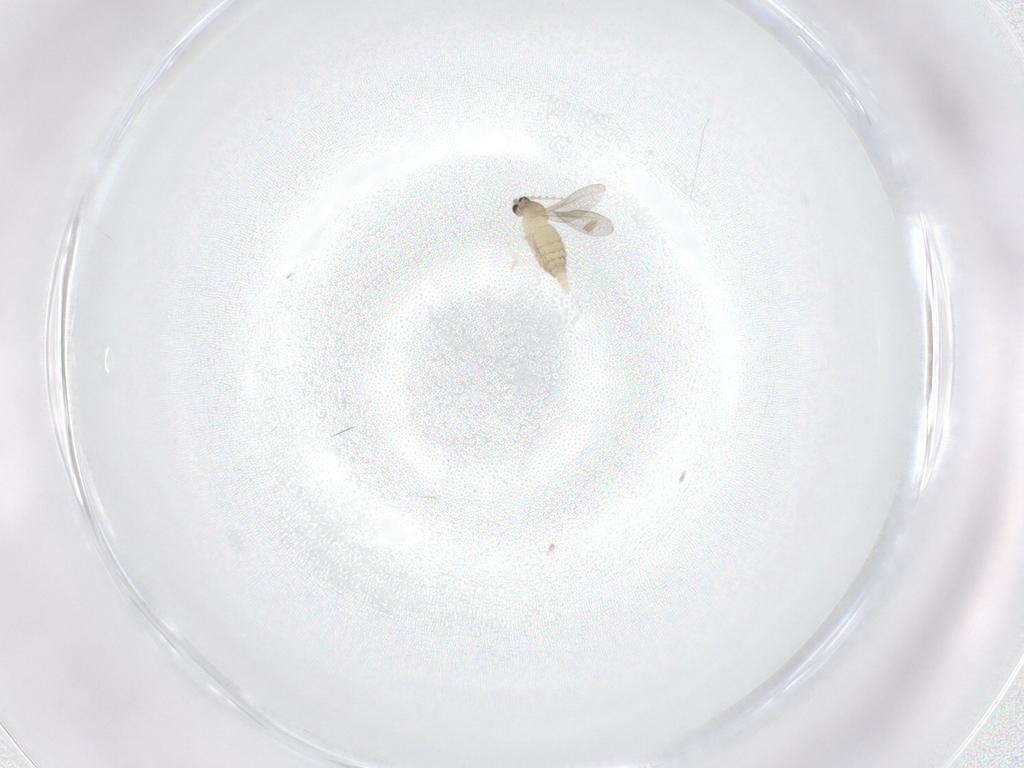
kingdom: Animalia
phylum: Arthropoda
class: Insecta
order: Diptera
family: Cecidomyiidae
